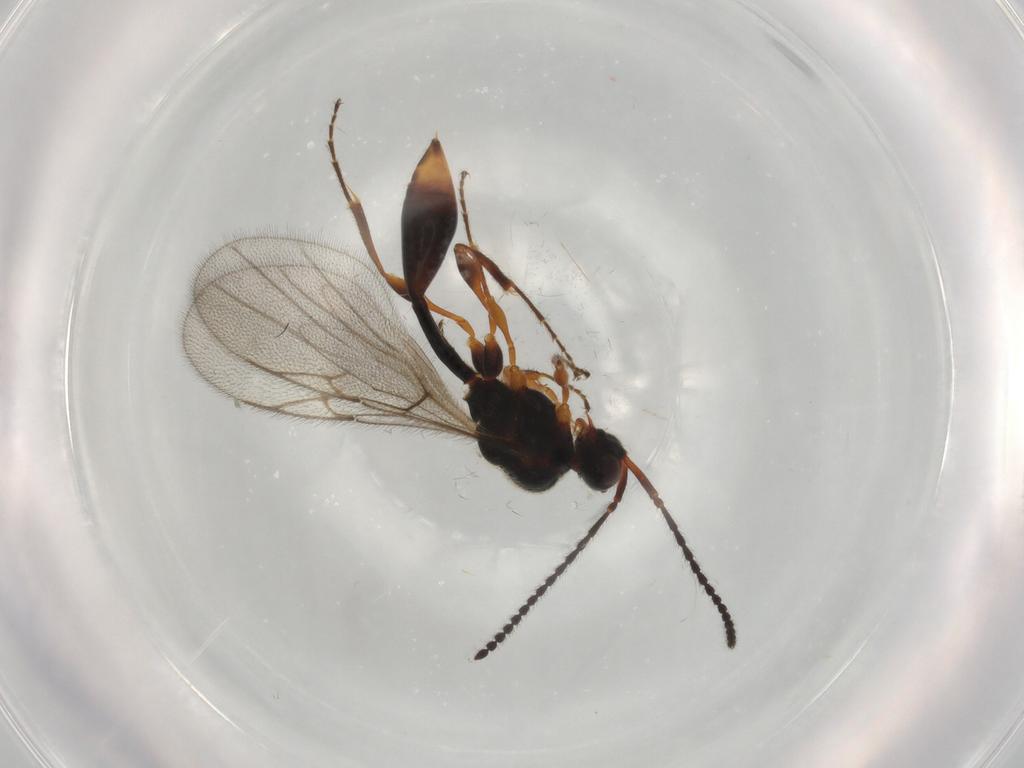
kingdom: Animalia
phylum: Arthropoda
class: Insecta
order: Hymenoptera
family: Diapriidae
